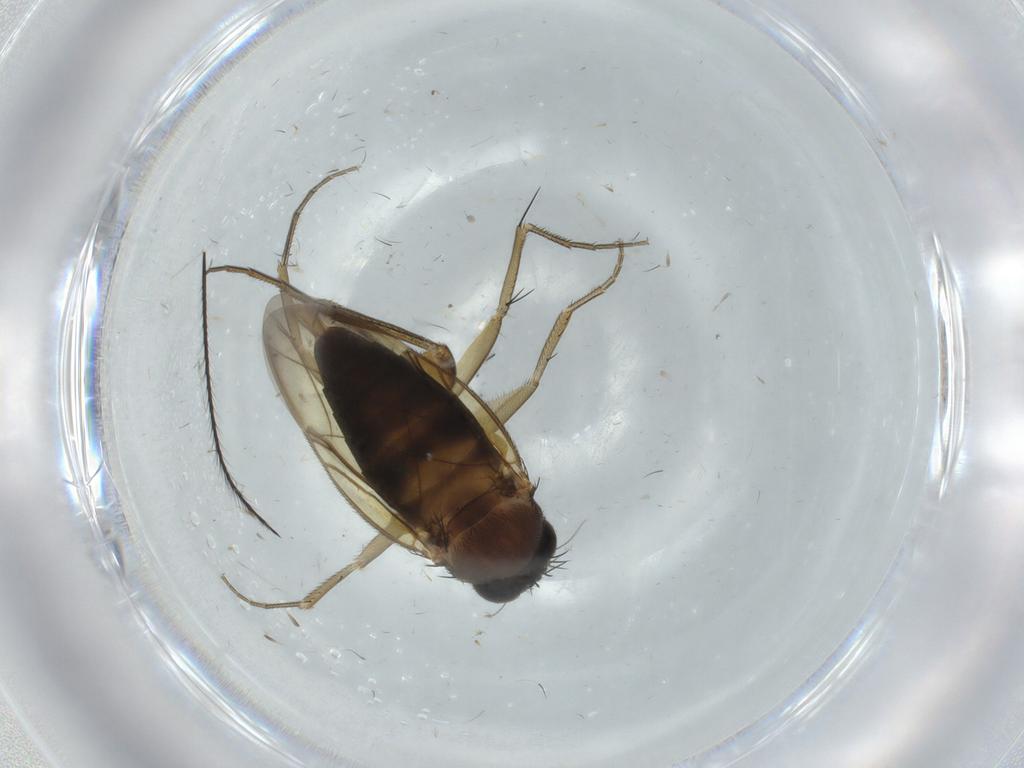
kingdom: Animalia
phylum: Arthropoda
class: Insecta
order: Diptera
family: Phoridae
